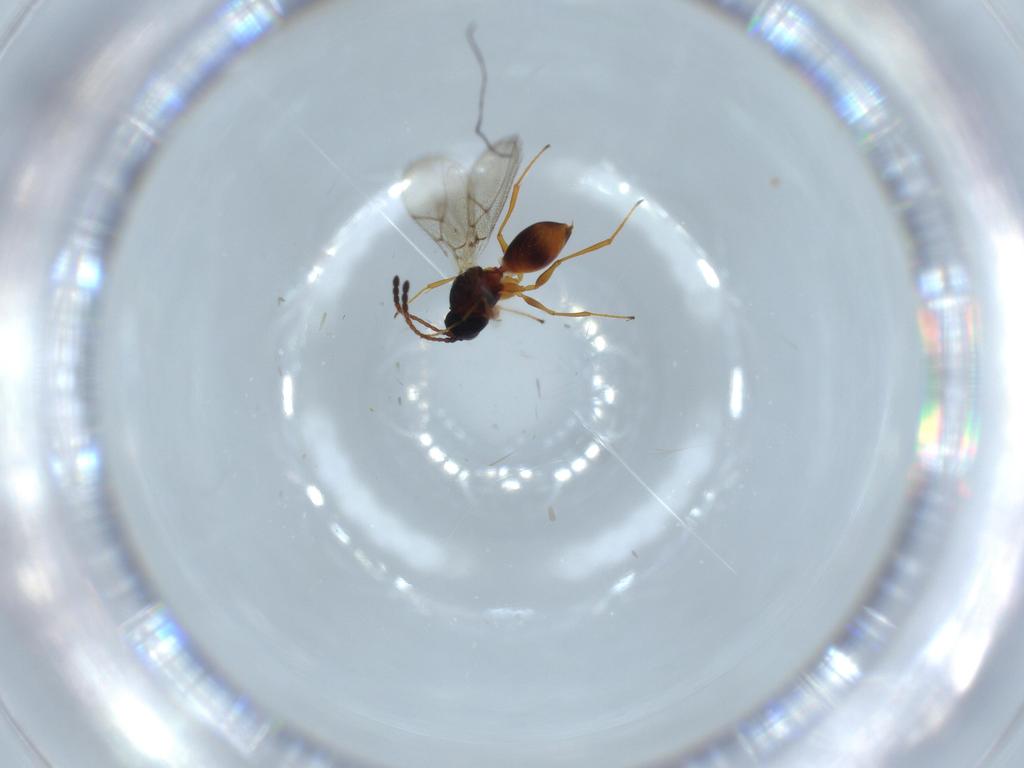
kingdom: Animalia
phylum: Arthropoda
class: Insecta
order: Hymenoptera
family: Figitidae
